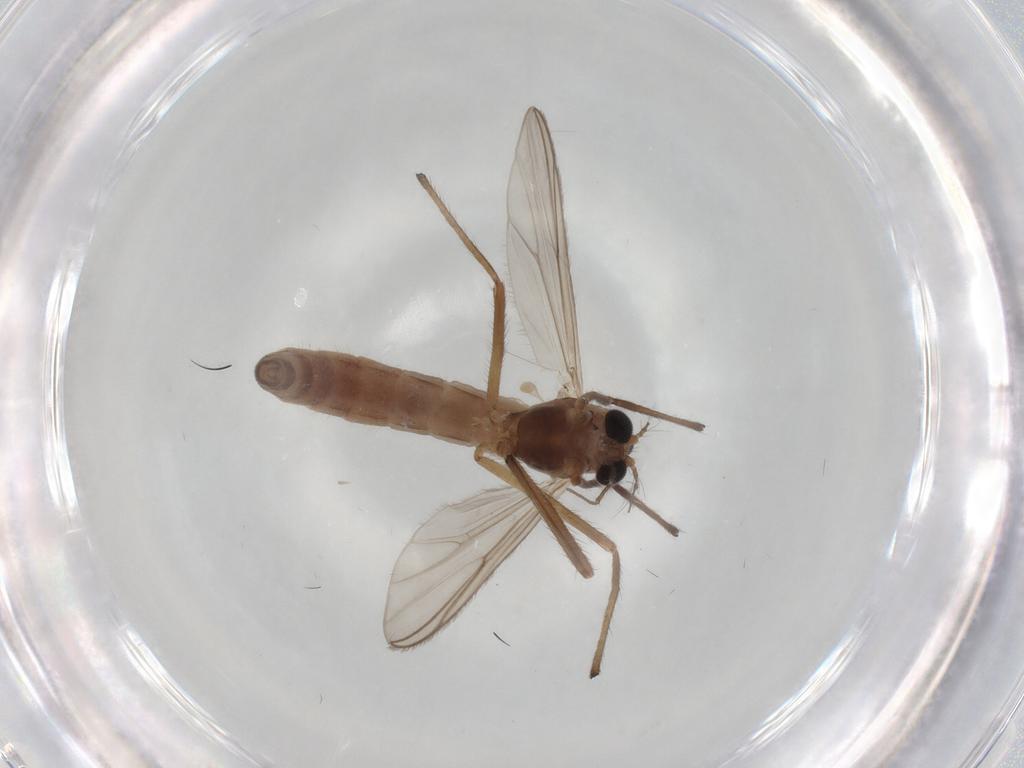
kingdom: Animalia
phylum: Arthropoda
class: Insecta
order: Diptera
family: Chironomidae
